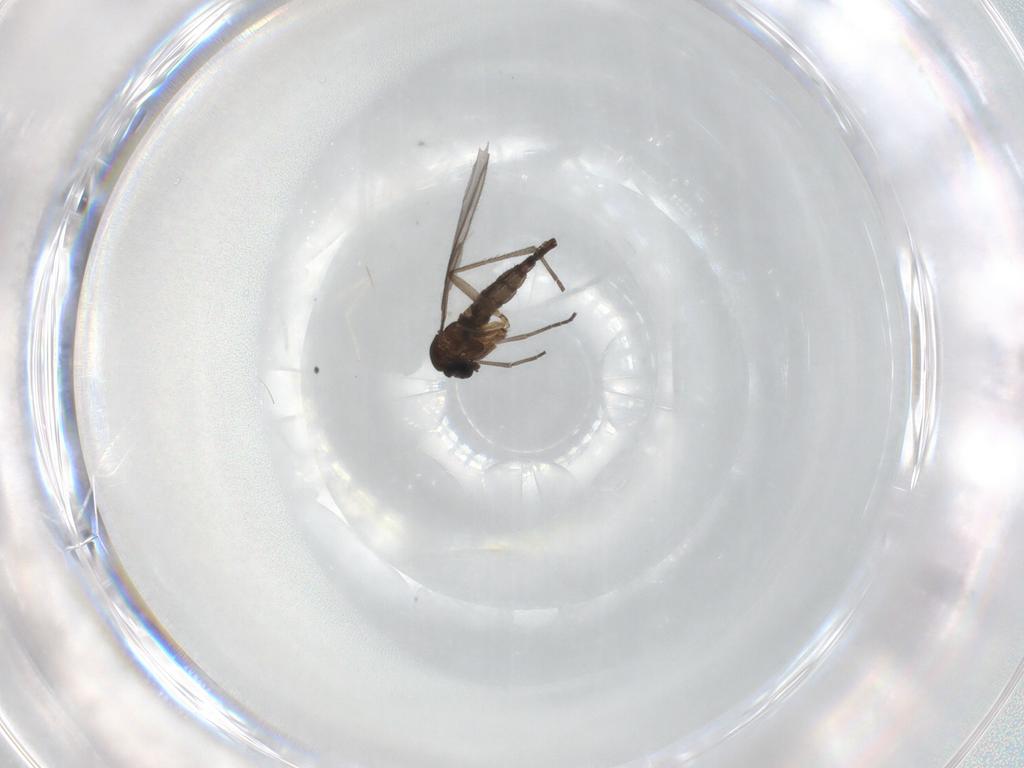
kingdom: Animalia
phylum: Arthropoda
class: Insecta
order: Diptera
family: Cecidomyiidae
